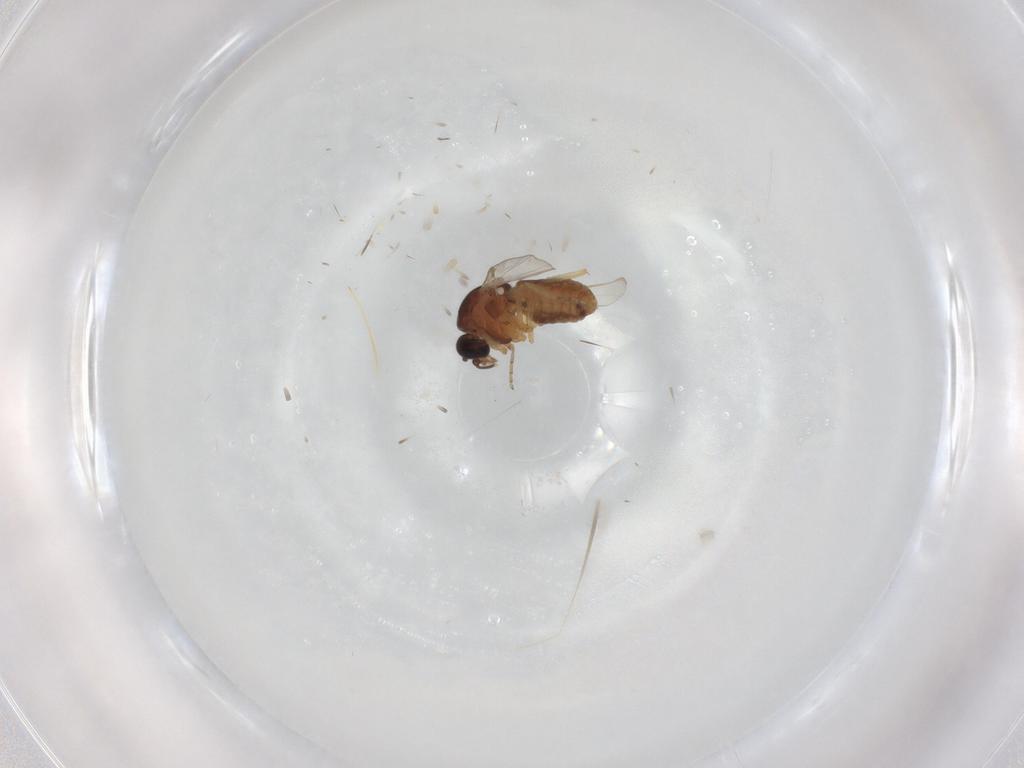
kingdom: Animalia
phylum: Arthropoda
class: Insecta
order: Diptera
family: Ceratopogonidae
